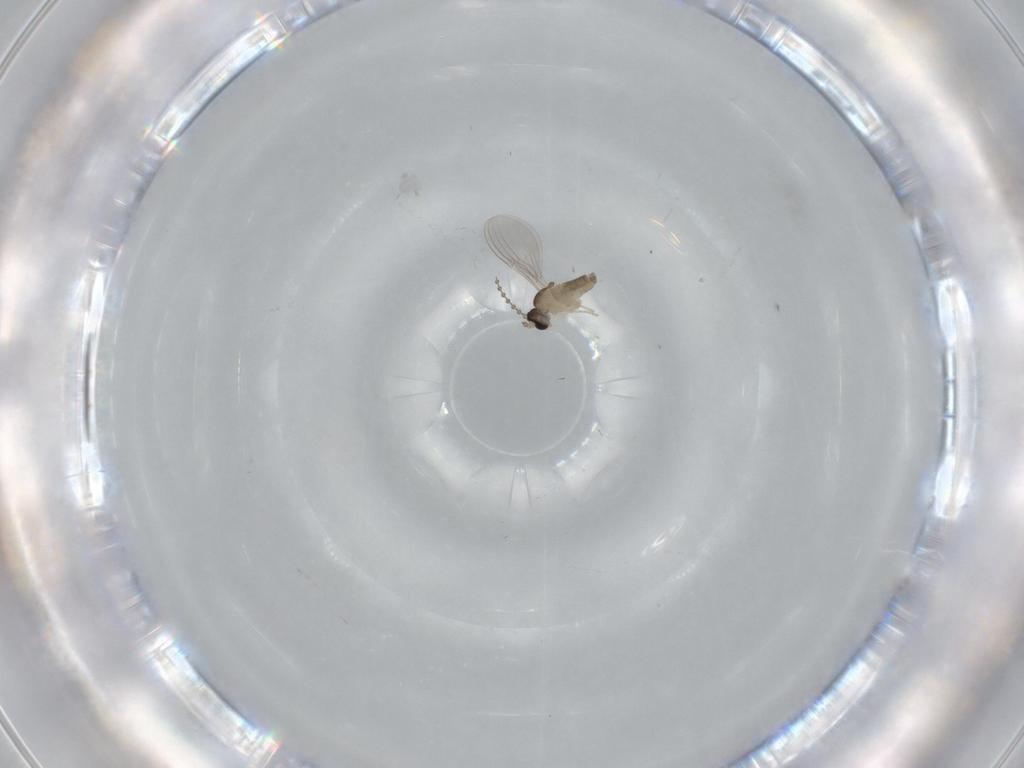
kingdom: Animalia
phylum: Arthropoda
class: Insecta
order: Diptera
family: Cecidomyiidae
